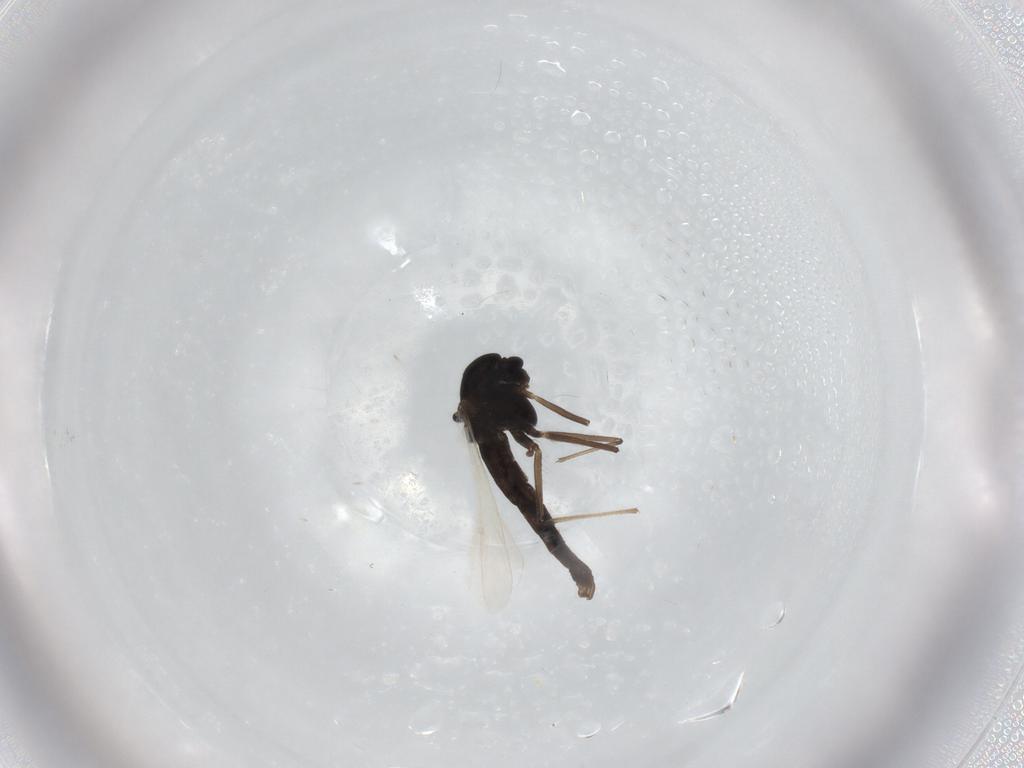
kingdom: Animalia
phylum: Arthropoda
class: Insecta
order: Diptera
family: Chironomidae
